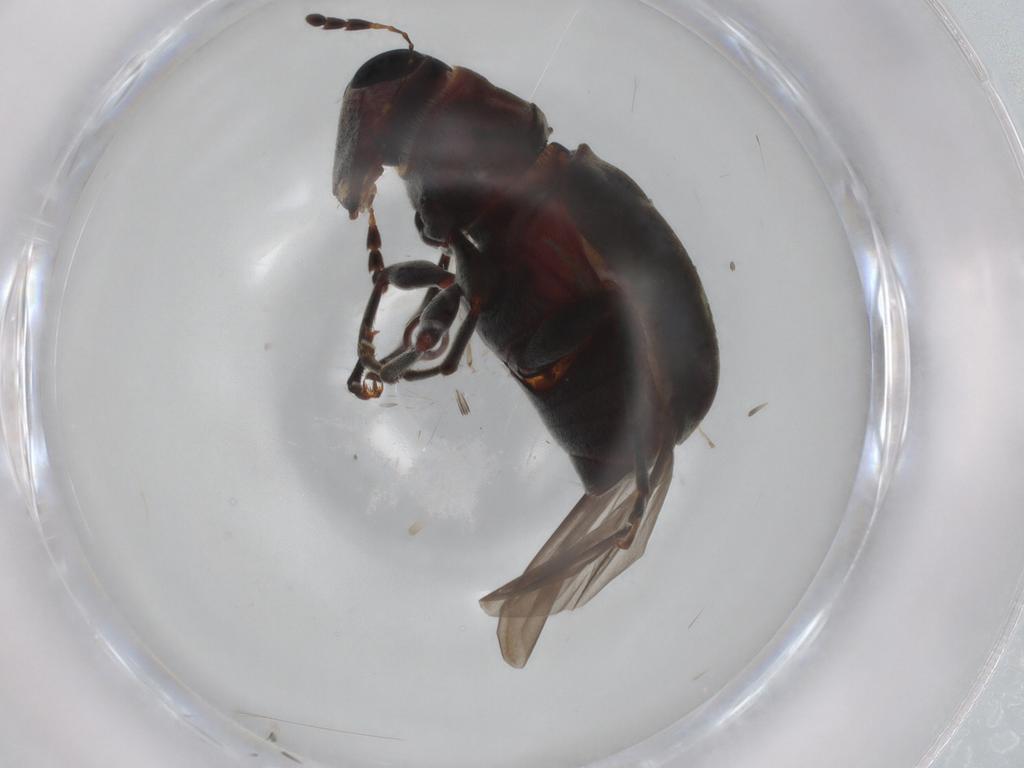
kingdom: Animalia
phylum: Arthropoda
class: Insecta
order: Coleoptera
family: Anthribidae
